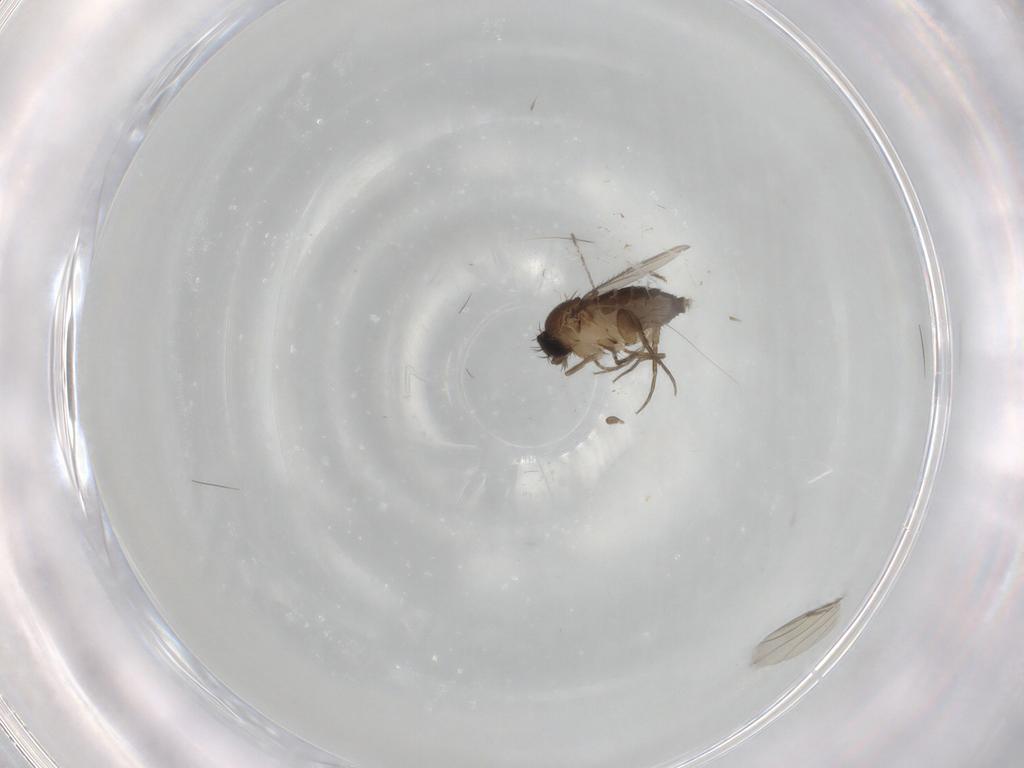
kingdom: Animalia
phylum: Arthropoda
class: Insecta
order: Diptera
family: Phoridae
